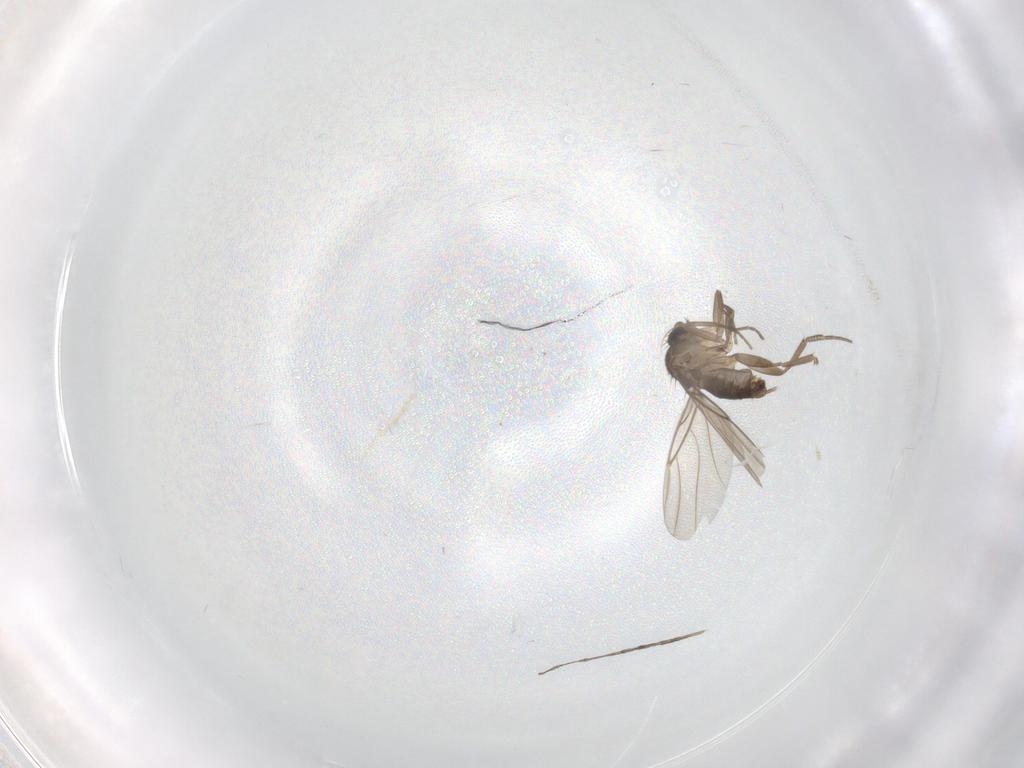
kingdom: Animalia
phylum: Arthropoda
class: Insecta
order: Diptera
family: Phoridae
